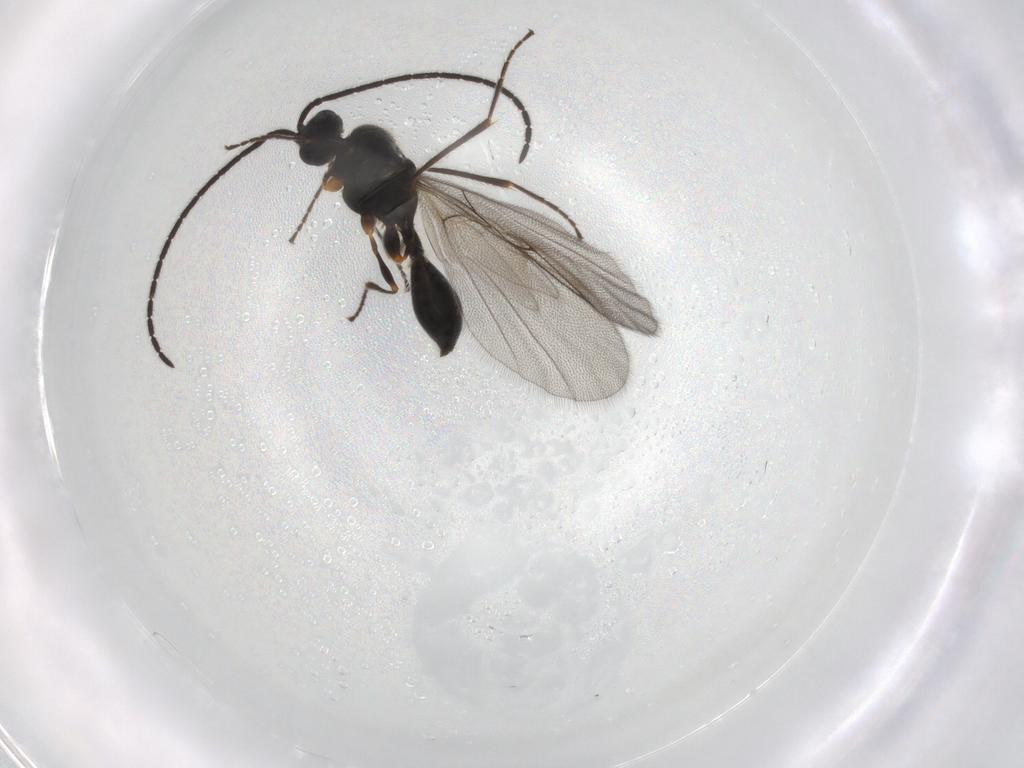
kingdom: Animalia
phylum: Arthropoda
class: Insecta
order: Hymenoptera
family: Diapriidae
